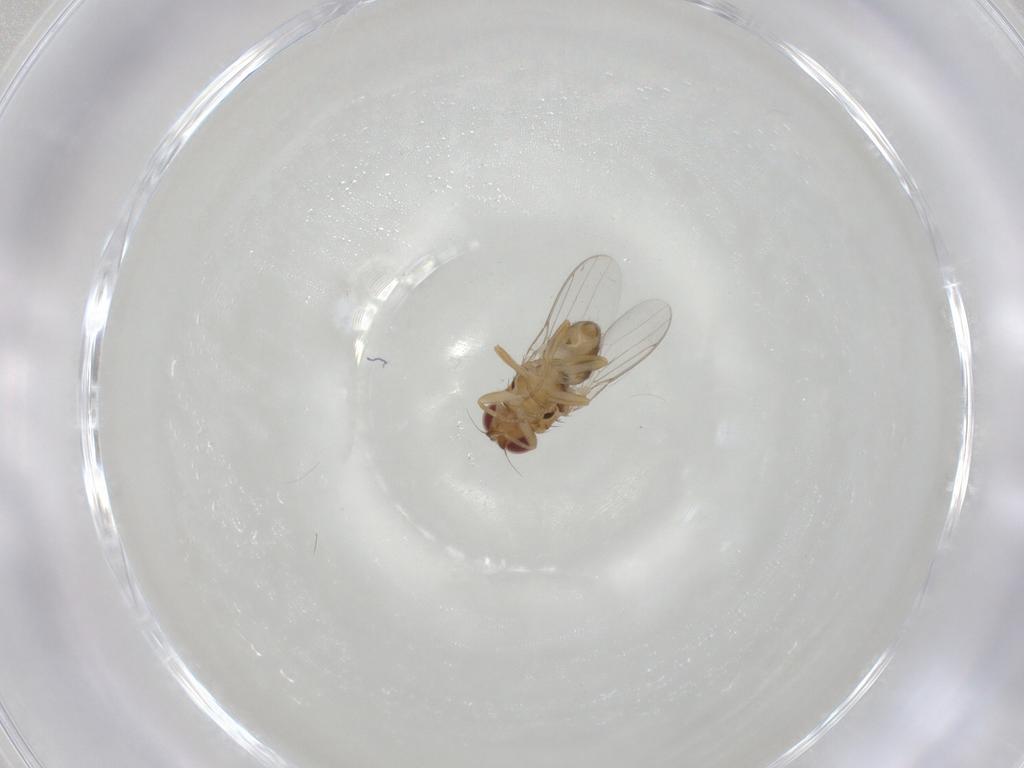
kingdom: Animalia
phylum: Arthropoda
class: Insecta
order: Diptera
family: Chloropidae
